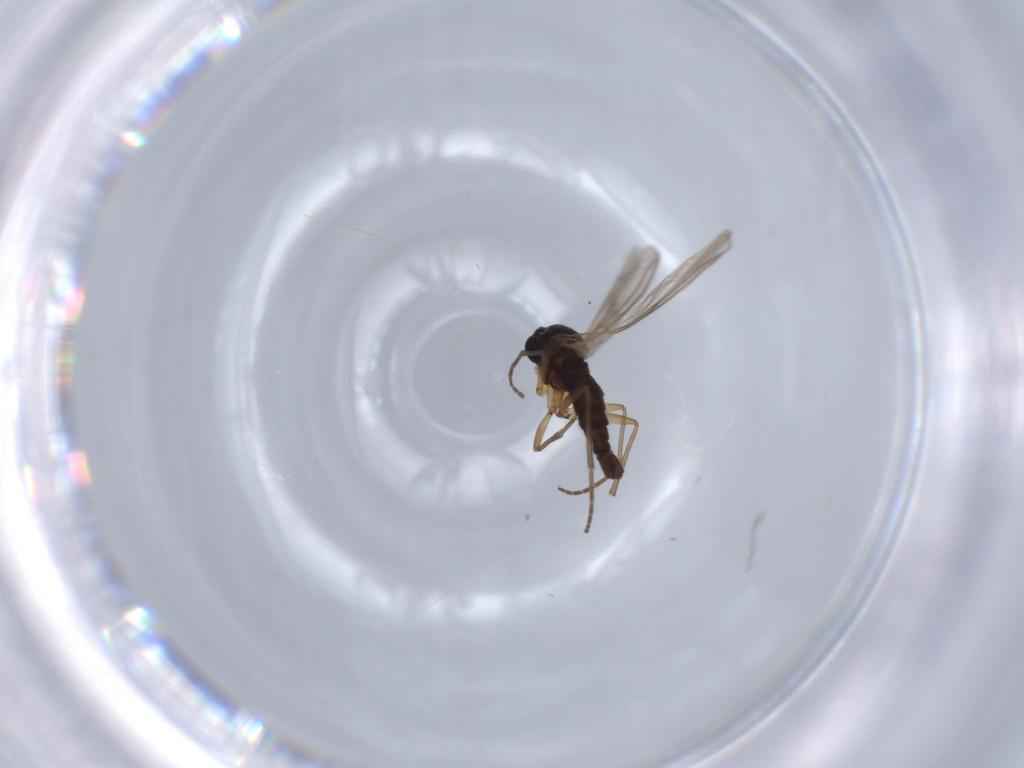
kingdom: Animalia
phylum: Arthropoda
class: Insecta
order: Diptera
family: Sciaridae
